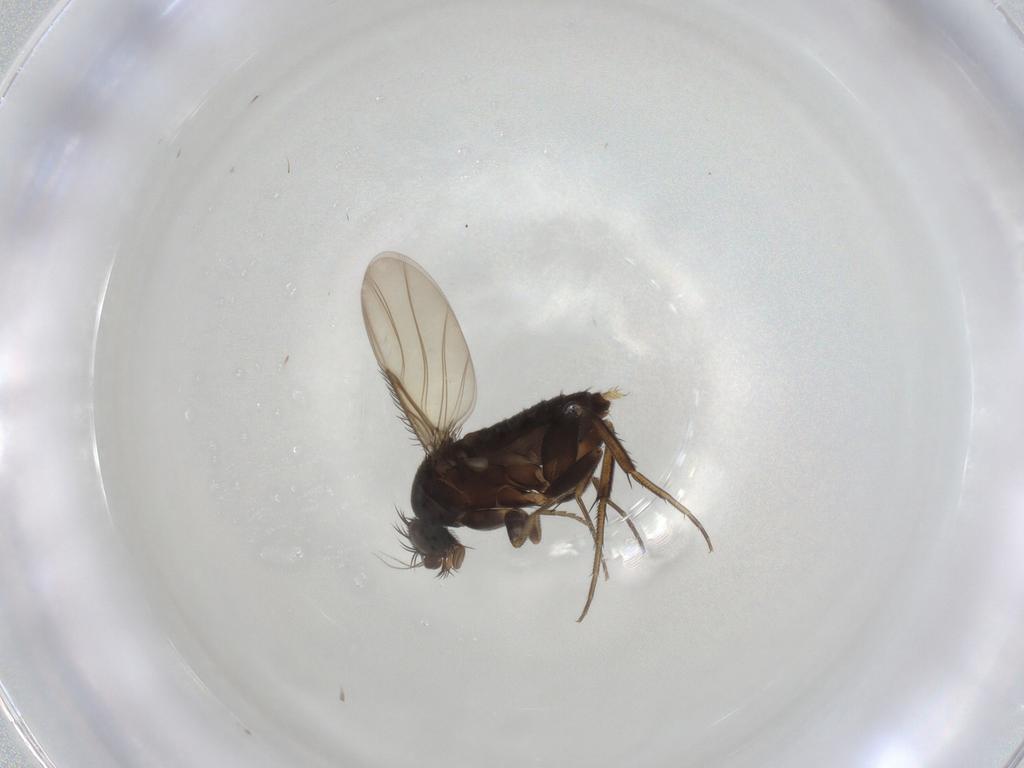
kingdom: Animalia
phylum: Arthropoda
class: Insecta
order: Diptera
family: Phoridae
